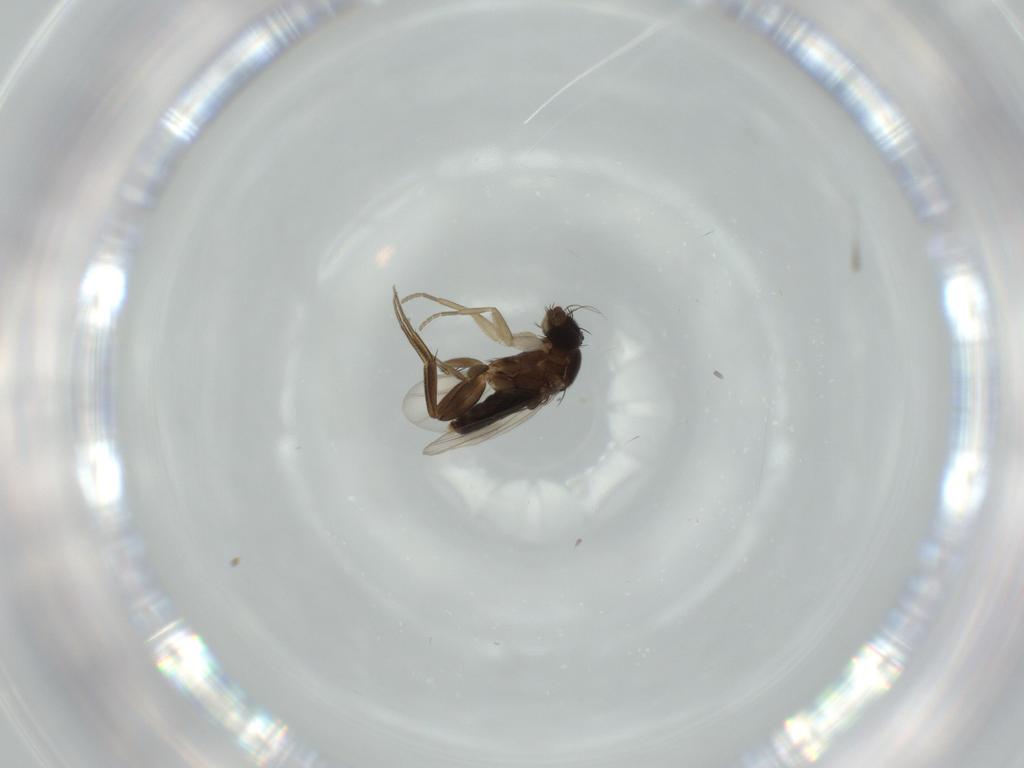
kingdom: Animalia
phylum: Arthropoda
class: Insecta
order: Diptera
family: Phoridae
